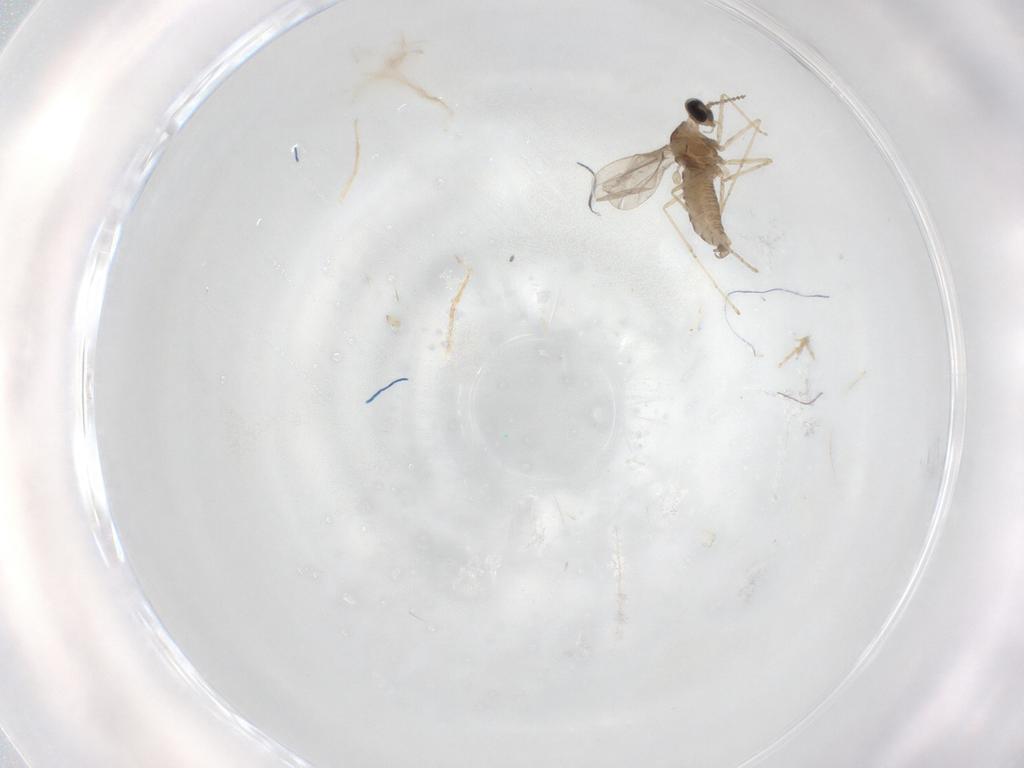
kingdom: Animalia
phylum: Arthropoda
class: Insecta
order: Diptera
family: Cecidomyiidae
